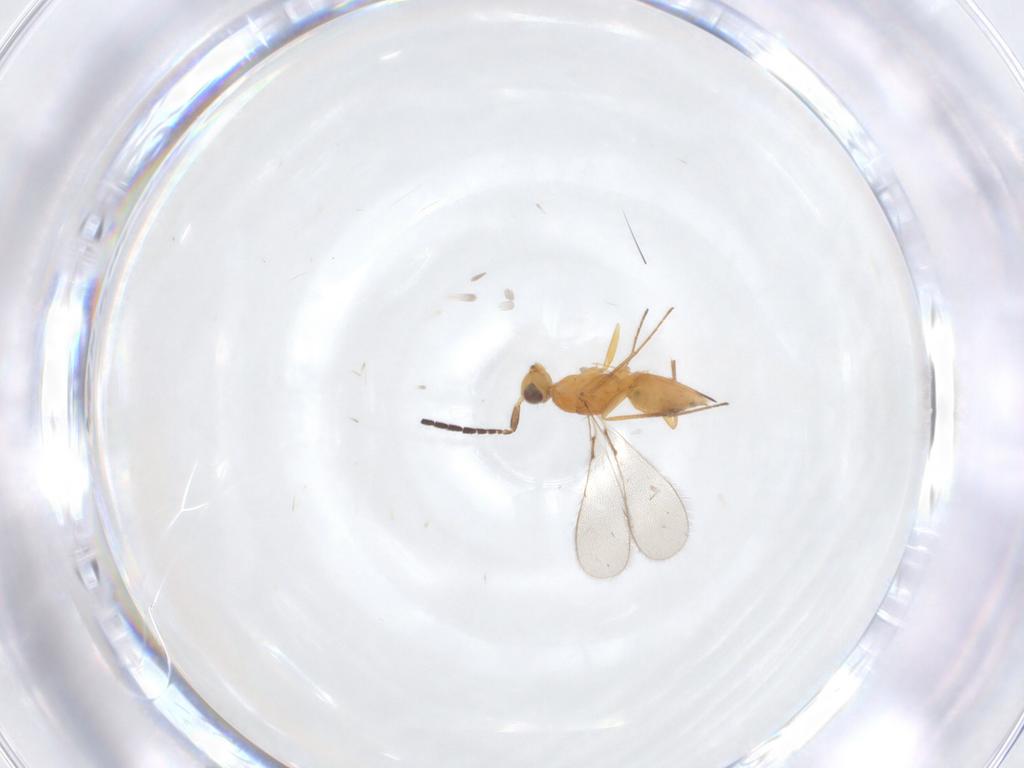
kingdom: Animalia
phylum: Arthropoda
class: Insecta
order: Hymenoptera
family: Mymaridae
